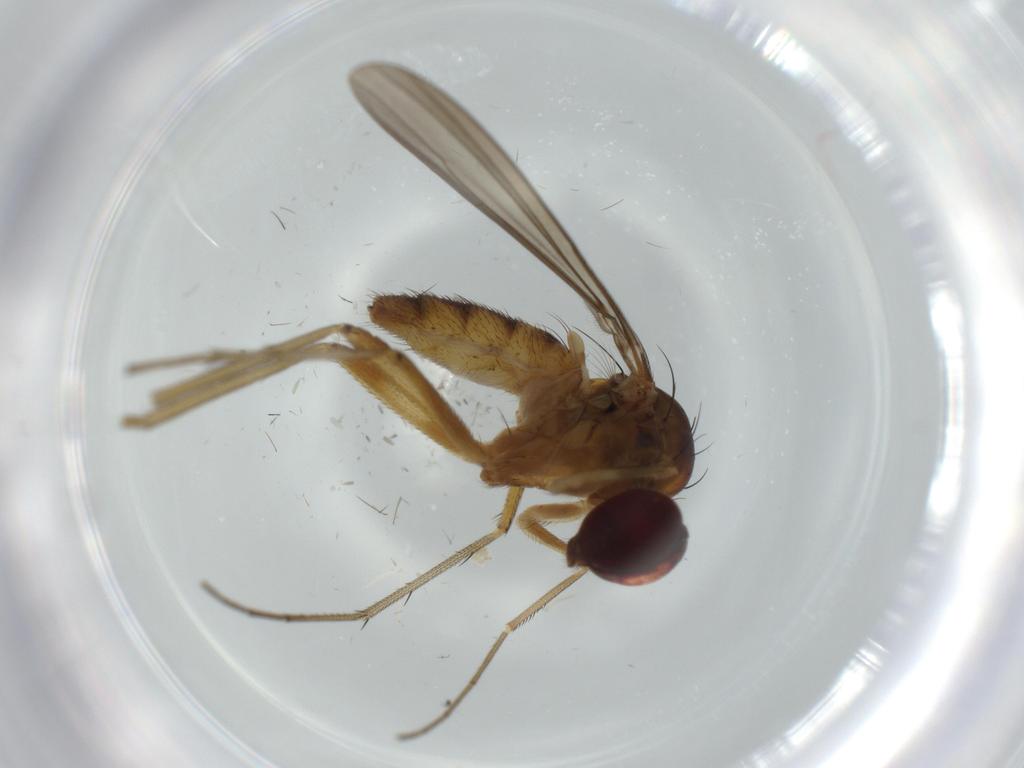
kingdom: Animalia
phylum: Arthropoda
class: Insecta
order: Diptera
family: Dolichopodidae
